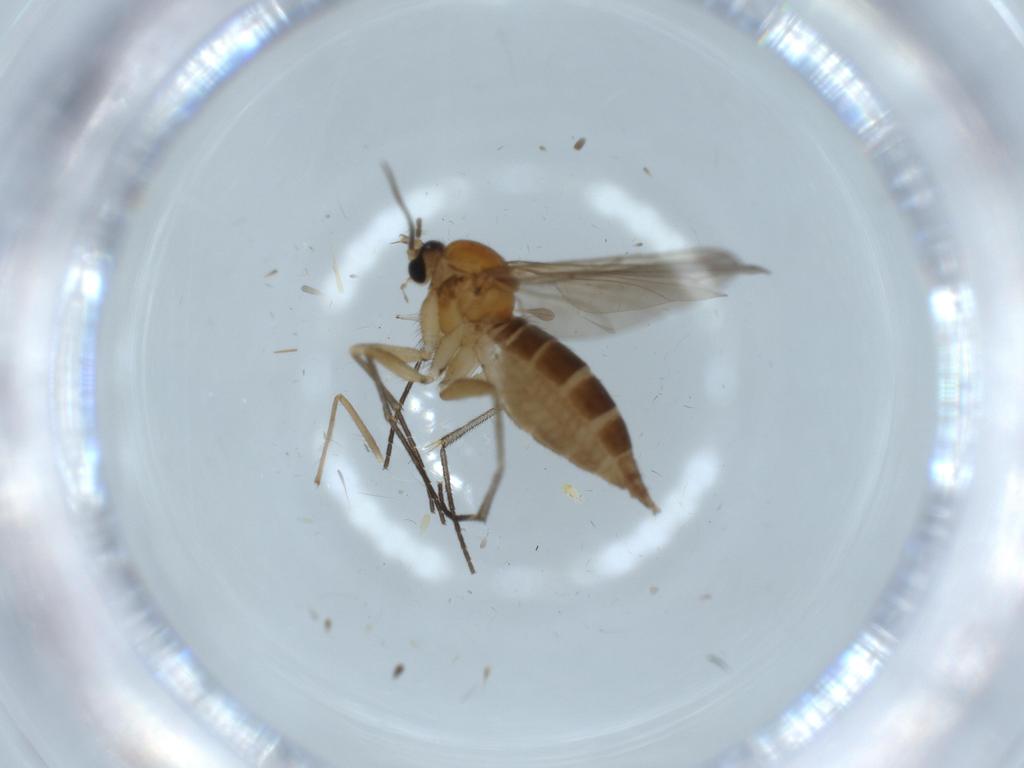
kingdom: Animalia
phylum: Arthropoda
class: Insecta
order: Diptera
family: Sciaridae
